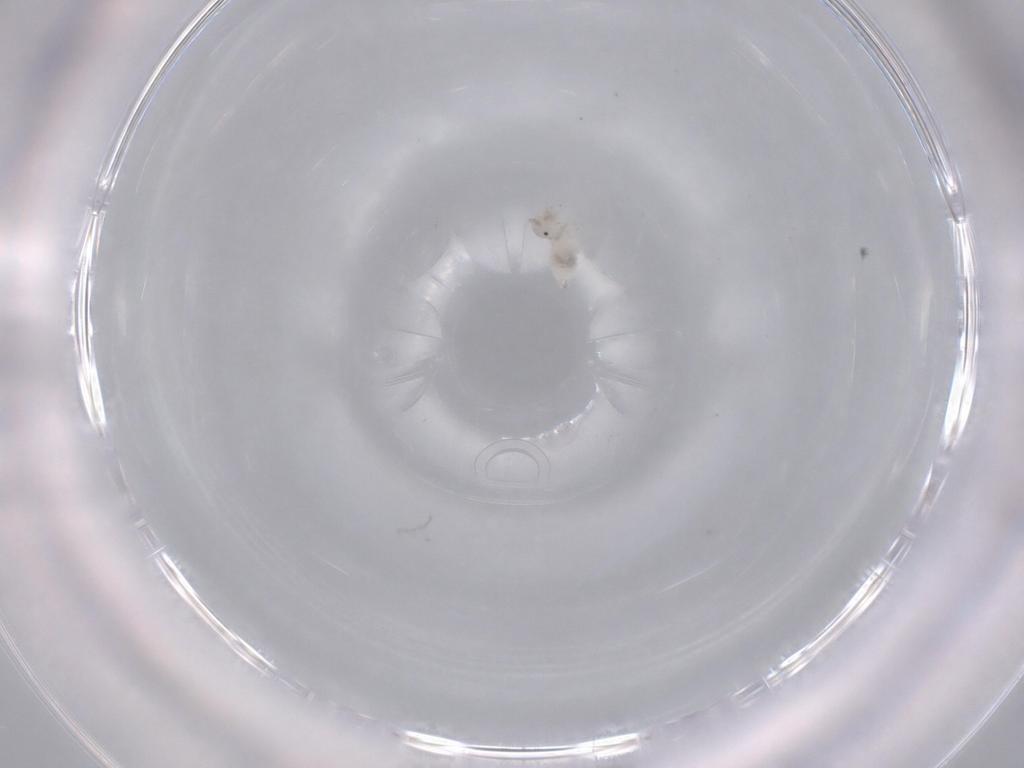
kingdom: Animalia
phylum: Arthropoda
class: Insecta
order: Psocodea
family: Caeciliusidae
